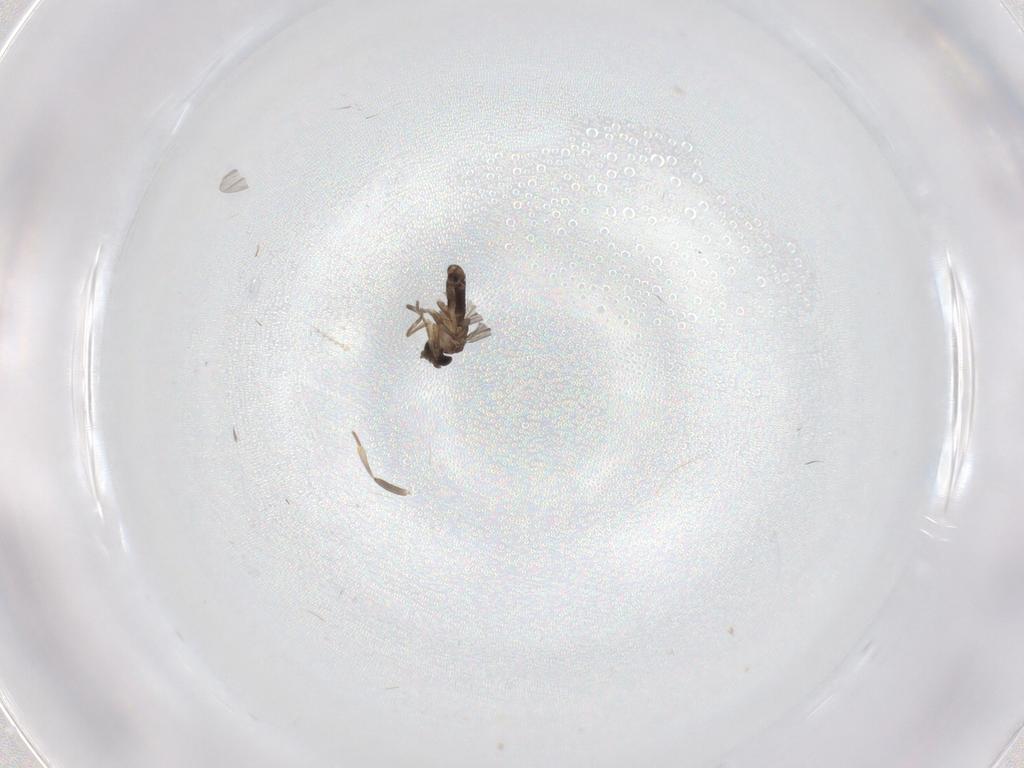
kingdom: Animalia
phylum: Arthropoda
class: Insecta
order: Diptera
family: Cecidomyiidae
